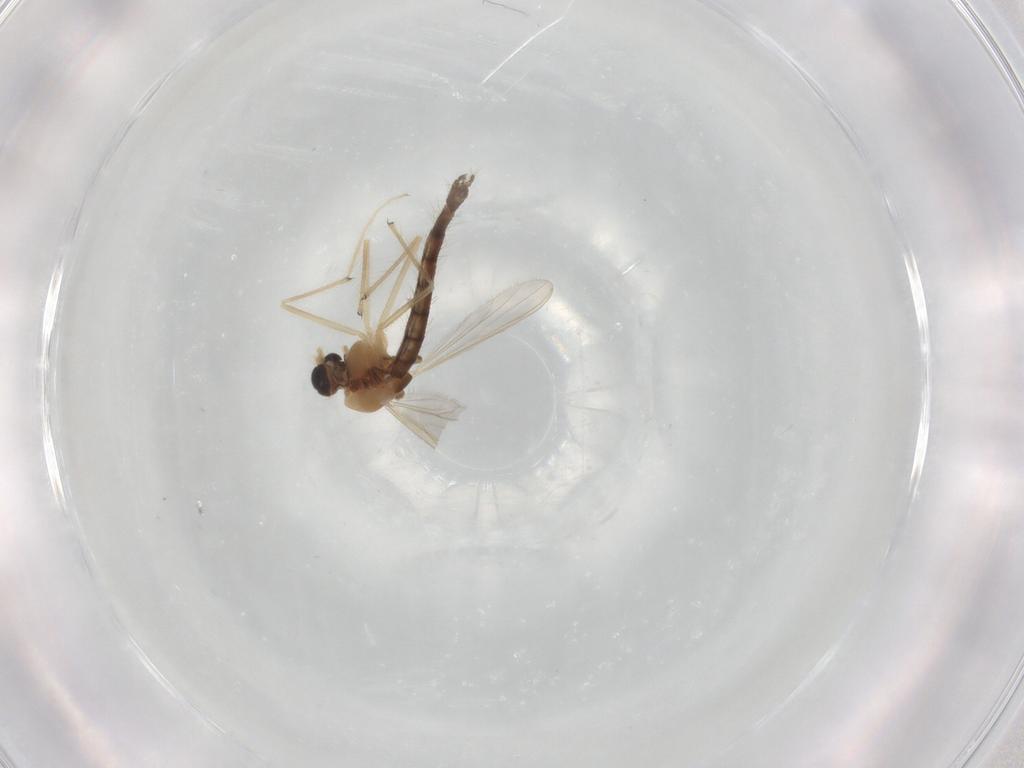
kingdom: Animalia
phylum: Arthropoda
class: Insecta
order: Diptera
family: Chironomidae
